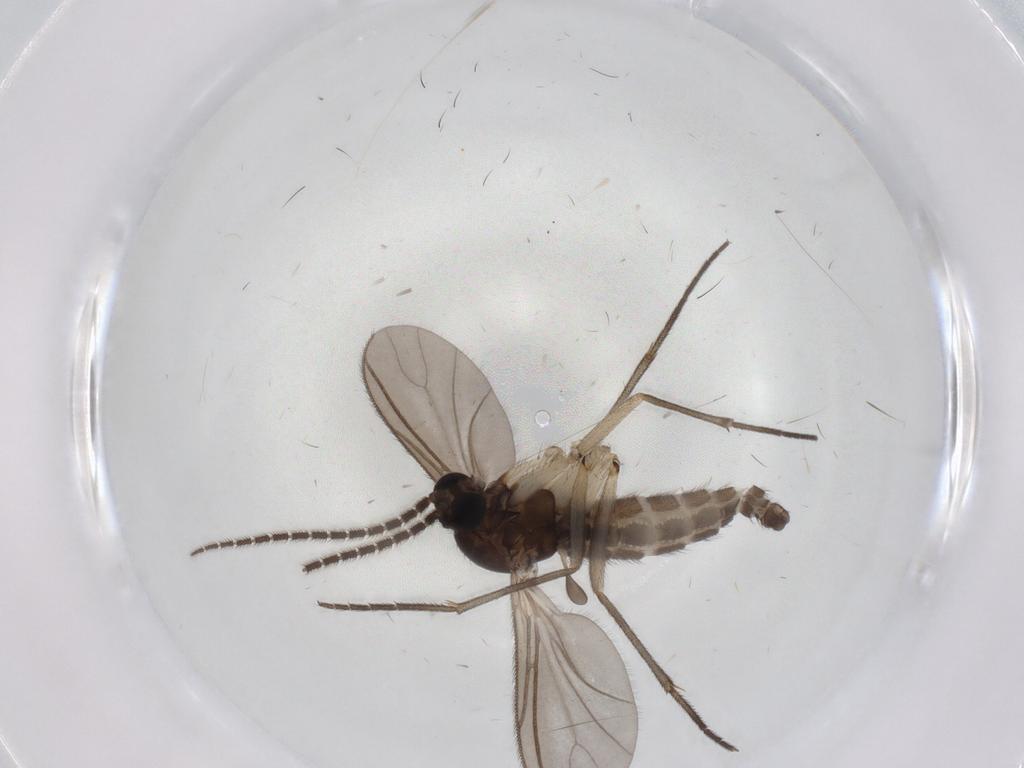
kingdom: Animalia
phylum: Arthropoda
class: Insecta
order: Diptera
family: Sciaridae
